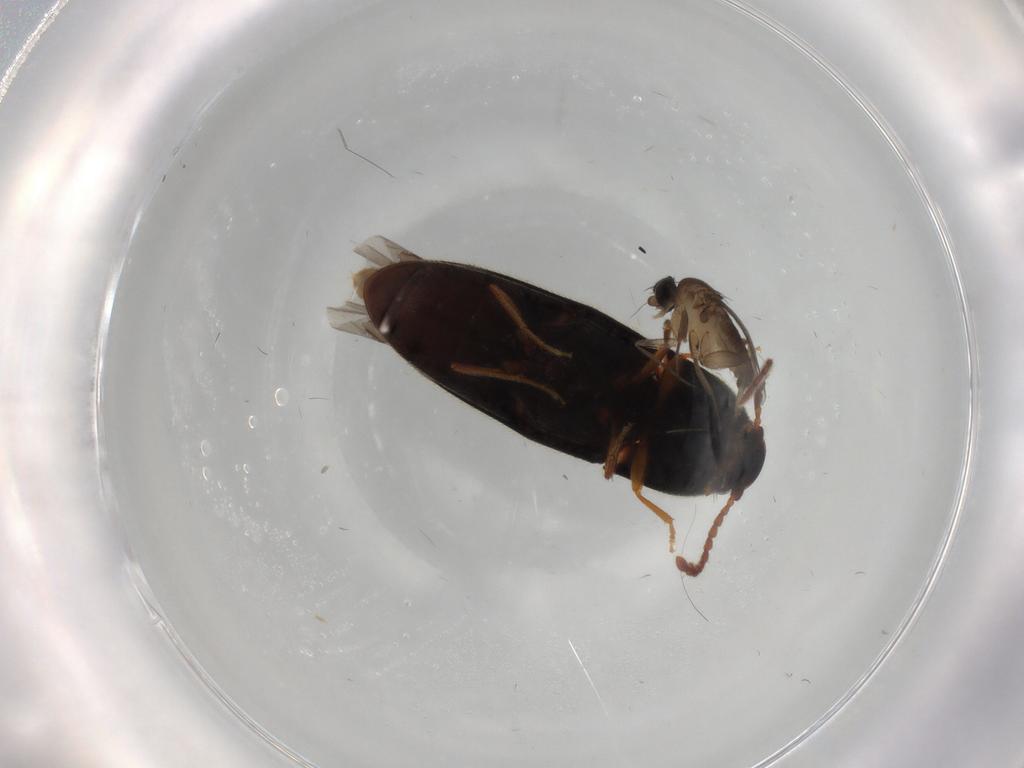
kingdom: Animalia
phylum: Arthropoda
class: Insecta
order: Diptera
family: Phoridae
